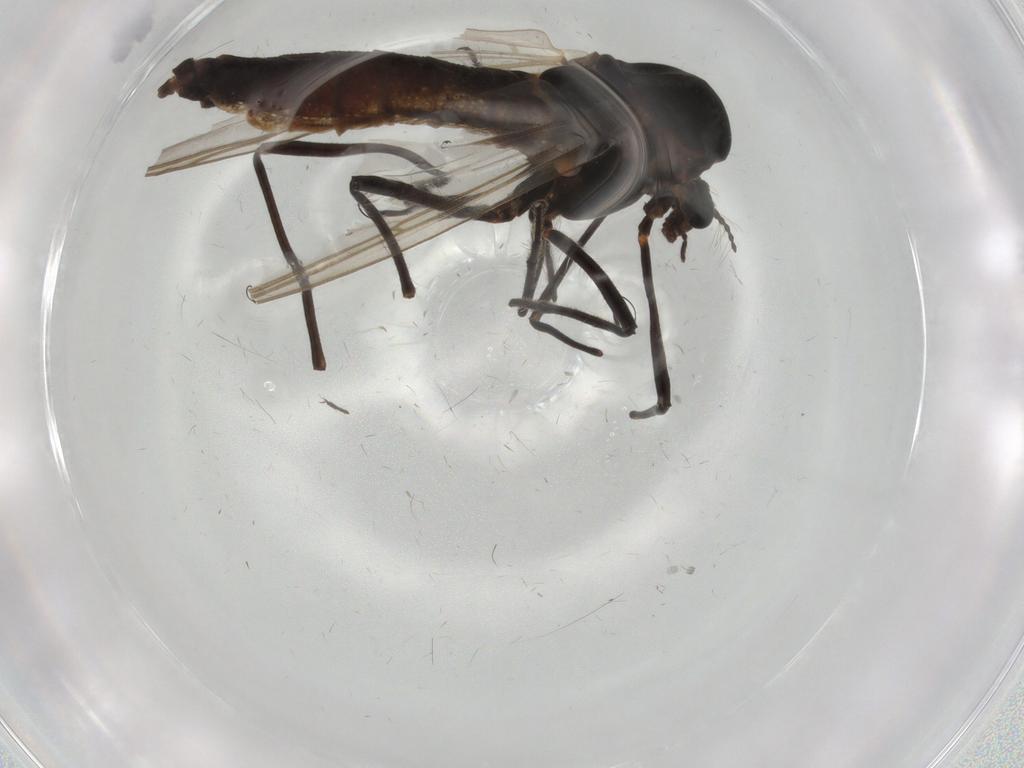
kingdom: Animalia
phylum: Arthropoda
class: Insecta
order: Diptera
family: Chironomidae
